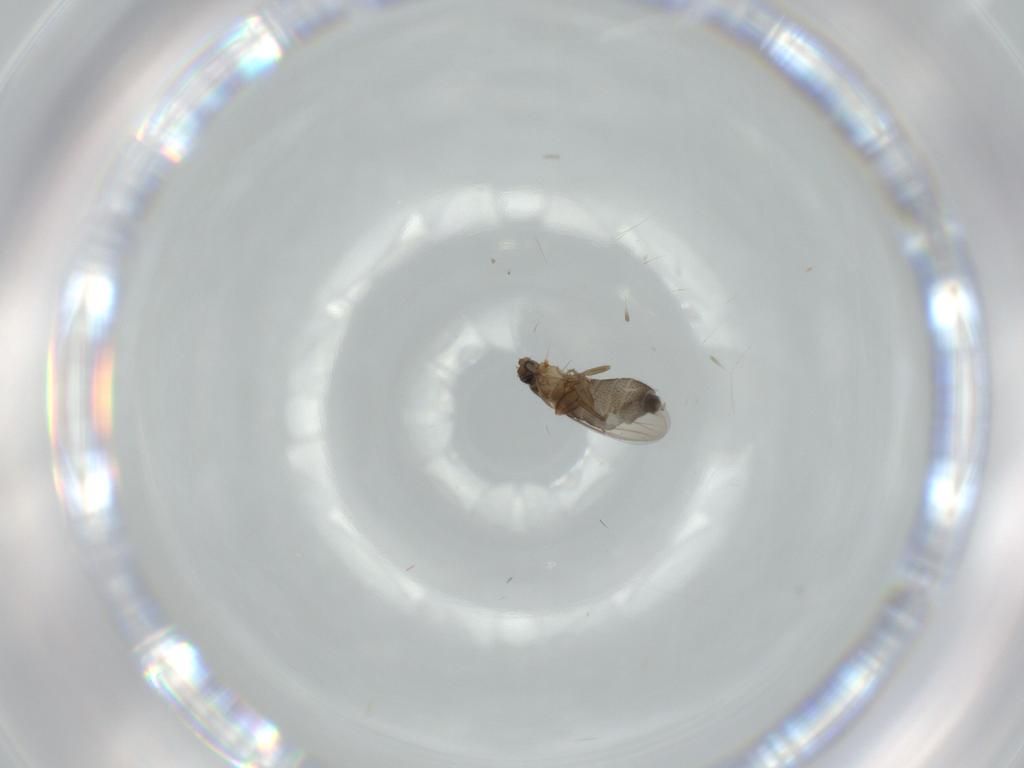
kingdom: Animalia
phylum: Arthropoda
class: Insecta
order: Diptera
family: Phoridae
